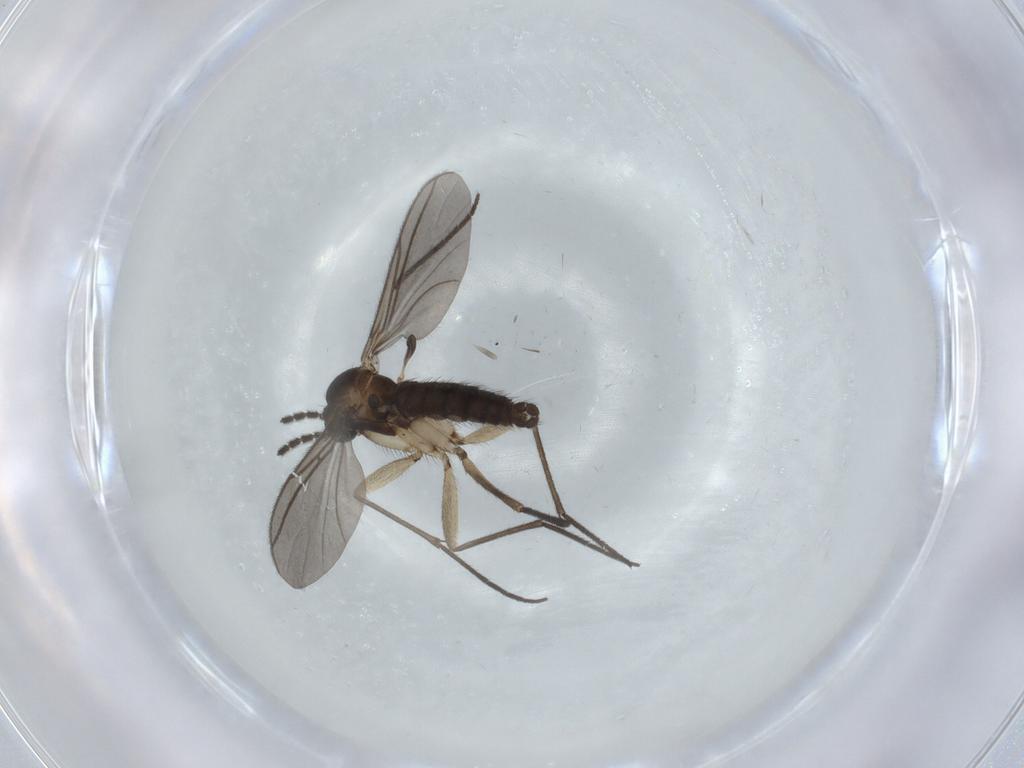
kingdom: Animalia
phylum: Arthropoda
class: Insecta
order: Diptera
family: Sciaridae
